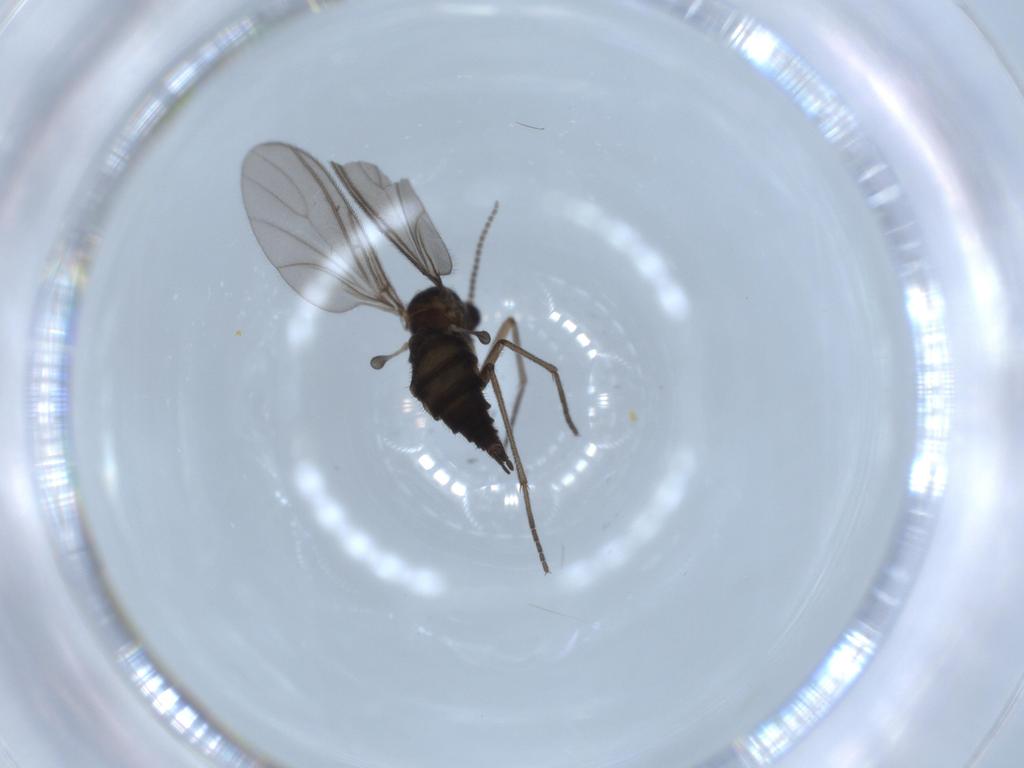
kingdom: Animalia
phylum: Arthropoda
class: Insecta
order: Diptera
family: Sciaridae
